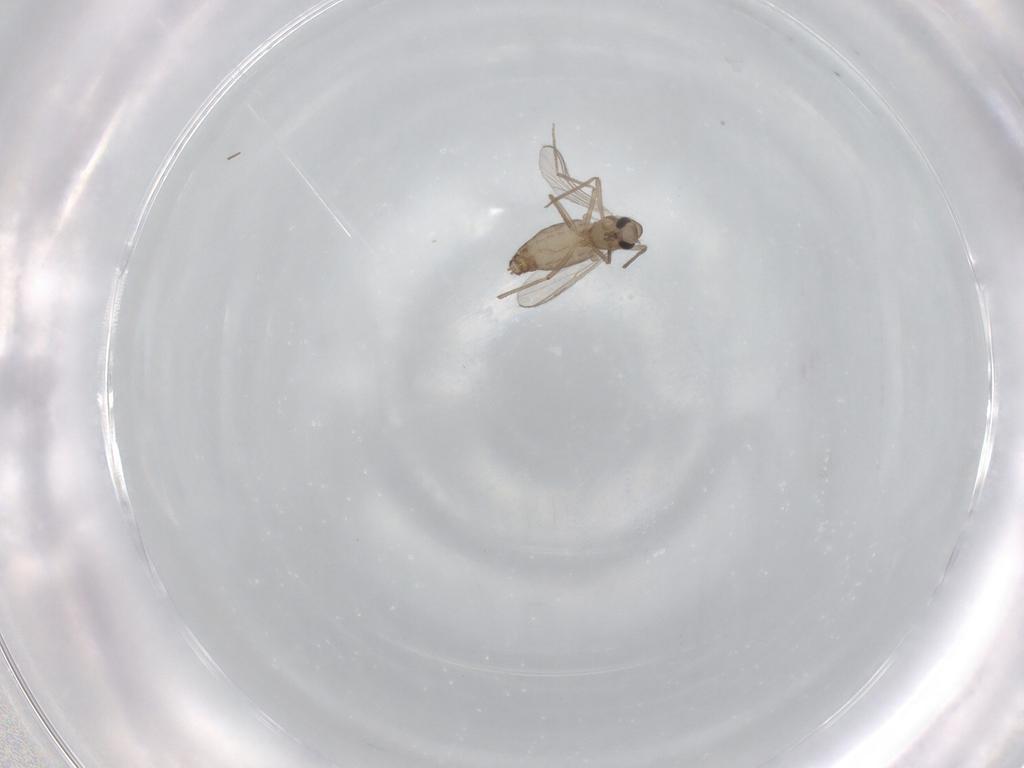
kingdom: Animalia
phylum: Arthropoda
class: Insecta
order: Diptera
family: Chironomidae
